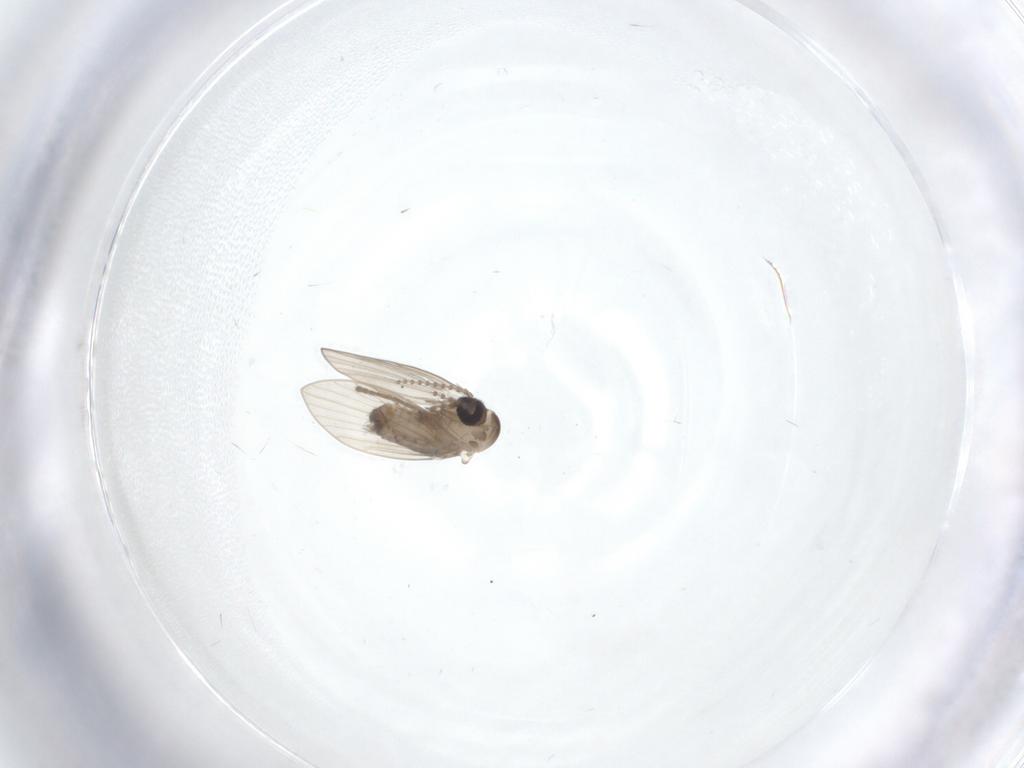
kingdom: Animalia
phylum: Arthropoda
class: Insecta
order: Diptera
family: Chironomidae
